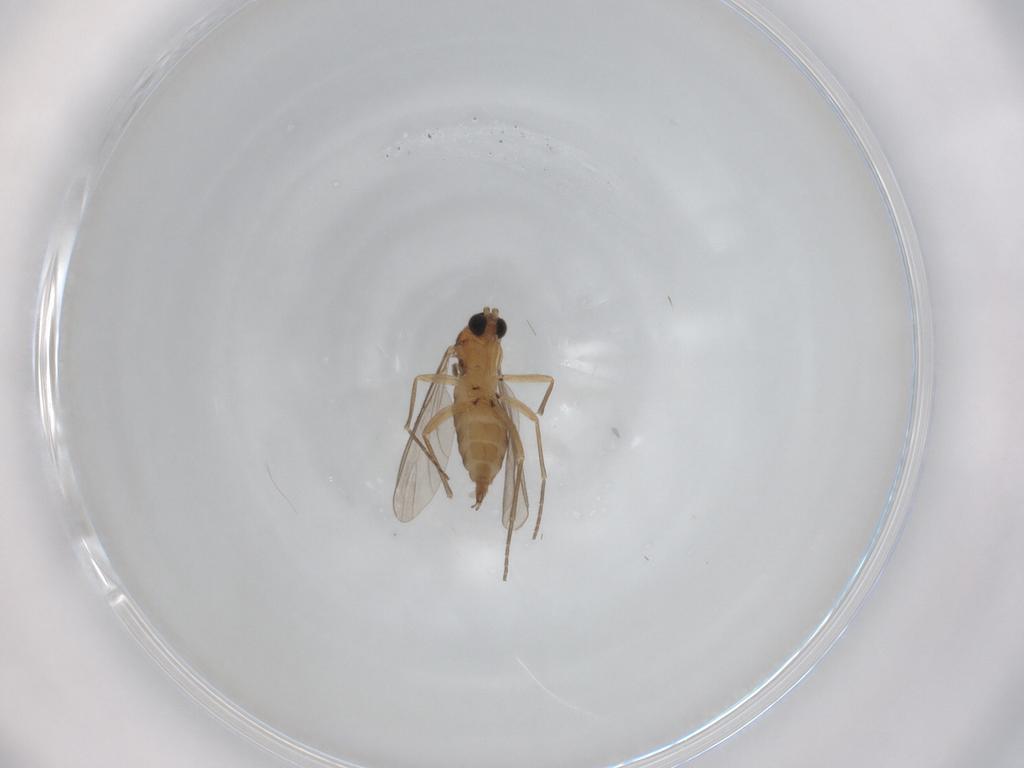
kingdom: Animalia
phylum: Arthropoda
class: Insecta
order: Diptera
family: Sciaridae
